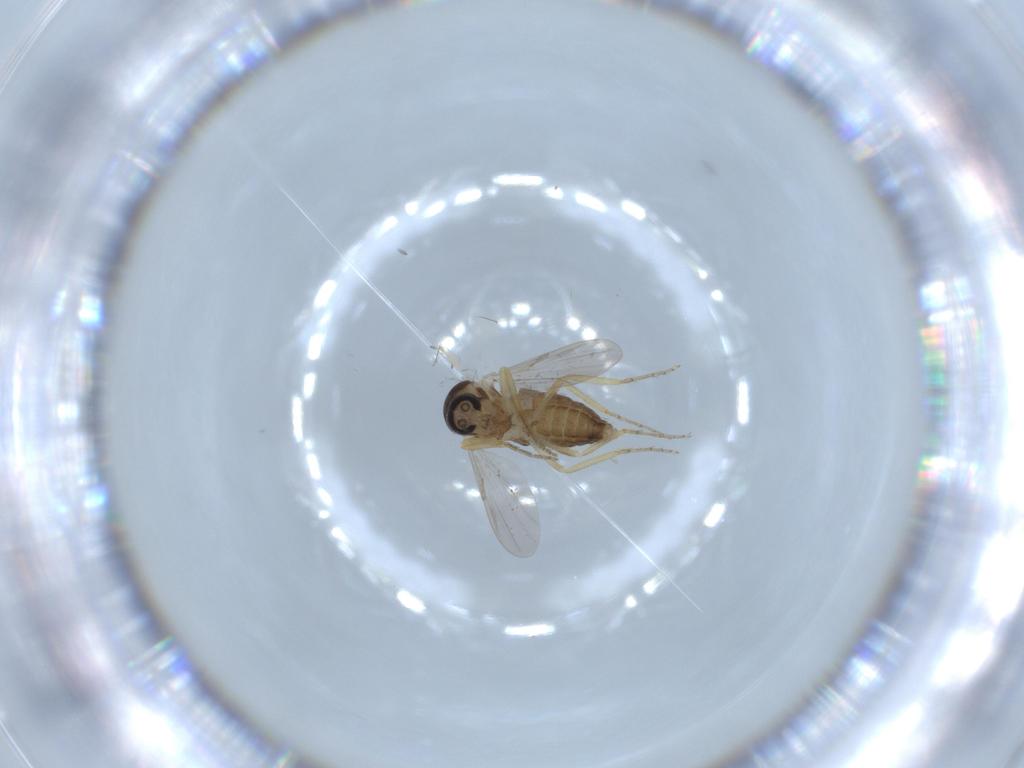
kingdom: Animalia
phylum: Arthropoda
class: Insecta
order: Diptera
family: Ceratopogonidae
